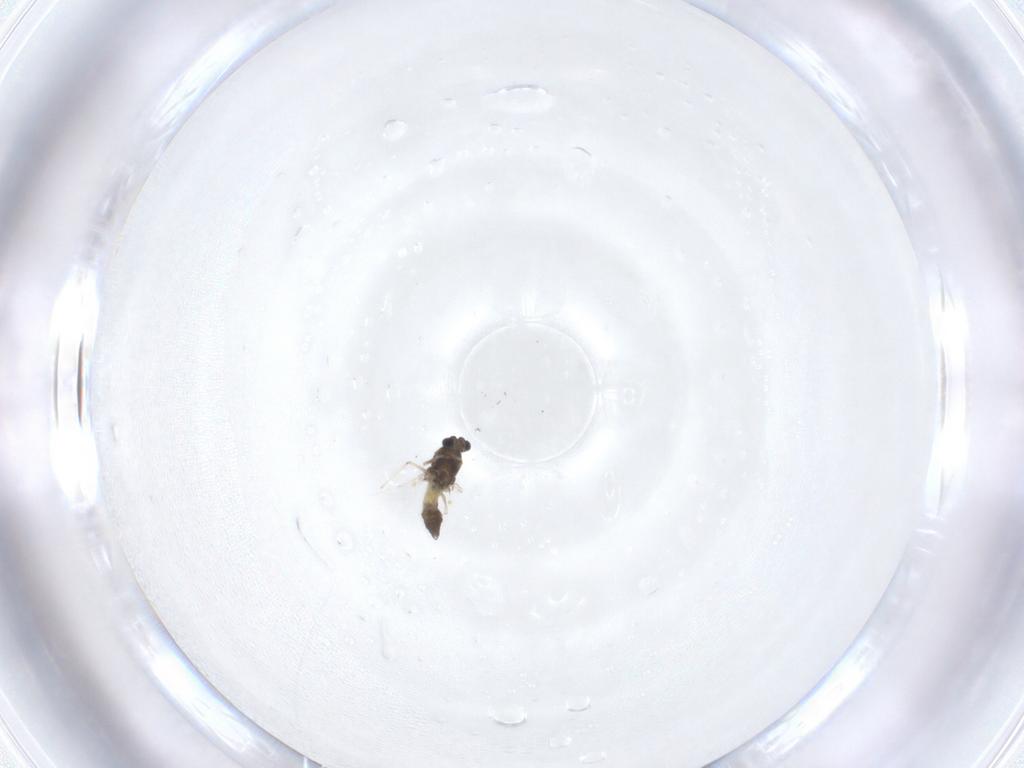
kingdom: Animalia
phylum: Arthropoda
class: Insecta
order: Diptera
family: Chironomidae
